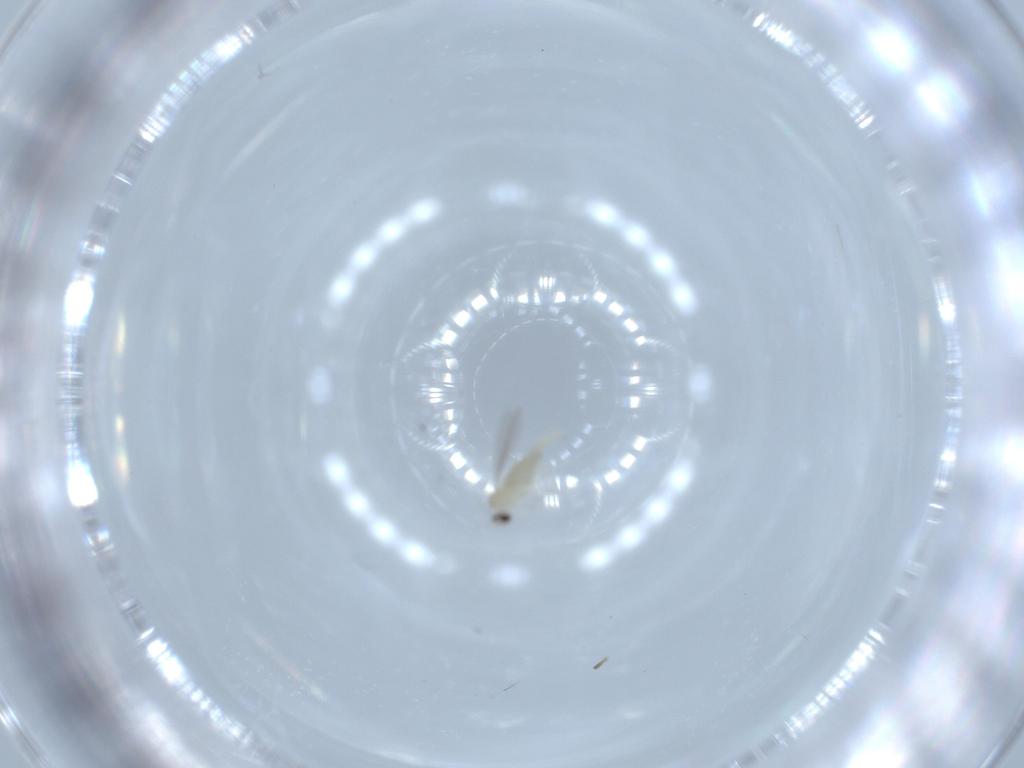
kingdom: Animalia
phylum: Arthropoda
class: Insecta
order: Diptera
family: Cecidomyiidae
